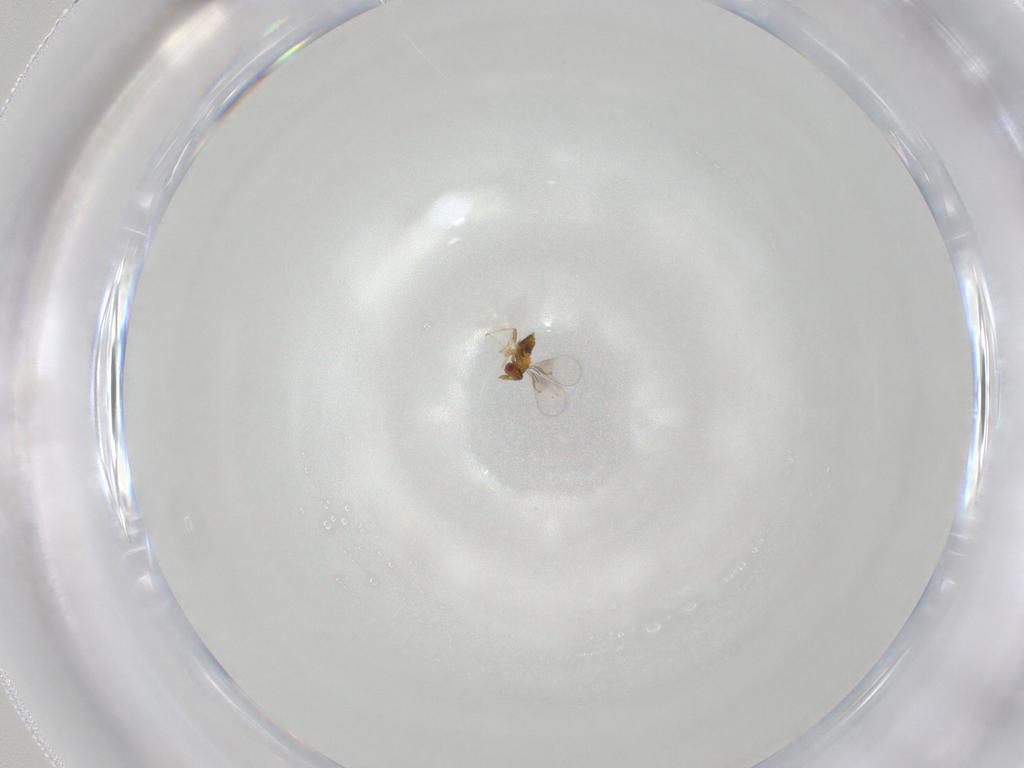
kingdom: Animalia
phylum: Arthropoda
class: Insecta
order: Hymenoptera
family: Trichogrammatidae
